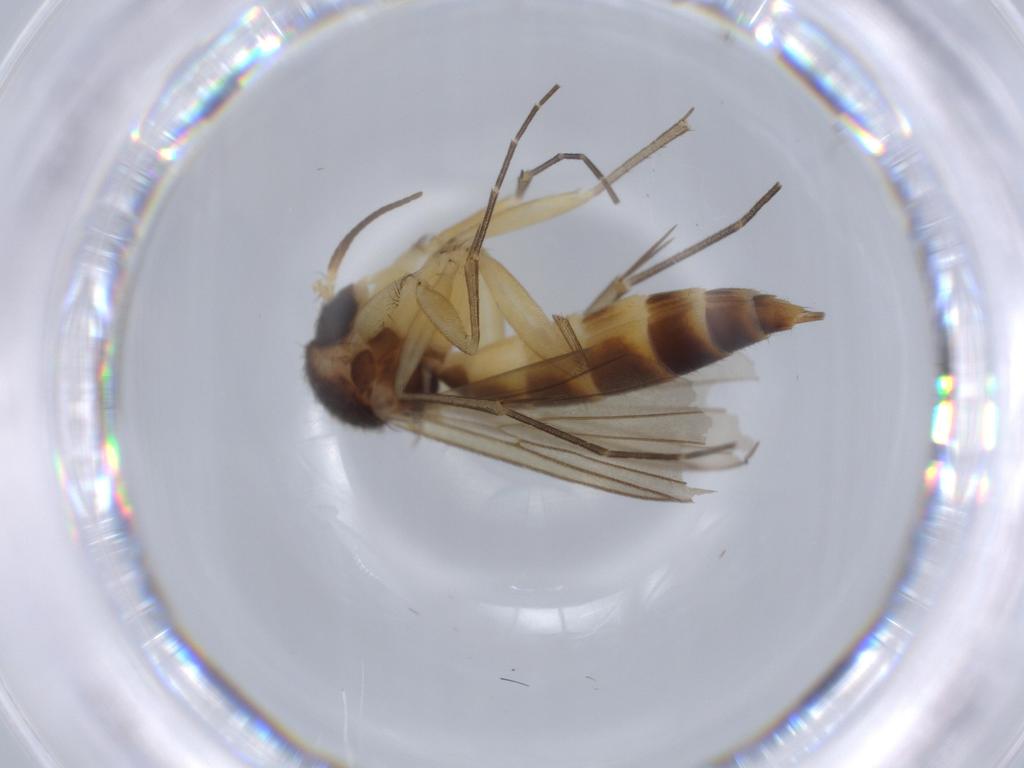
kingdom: Animalia
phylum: Arthropoda
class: Insecta
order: Diptera
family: Mycetophilidae
